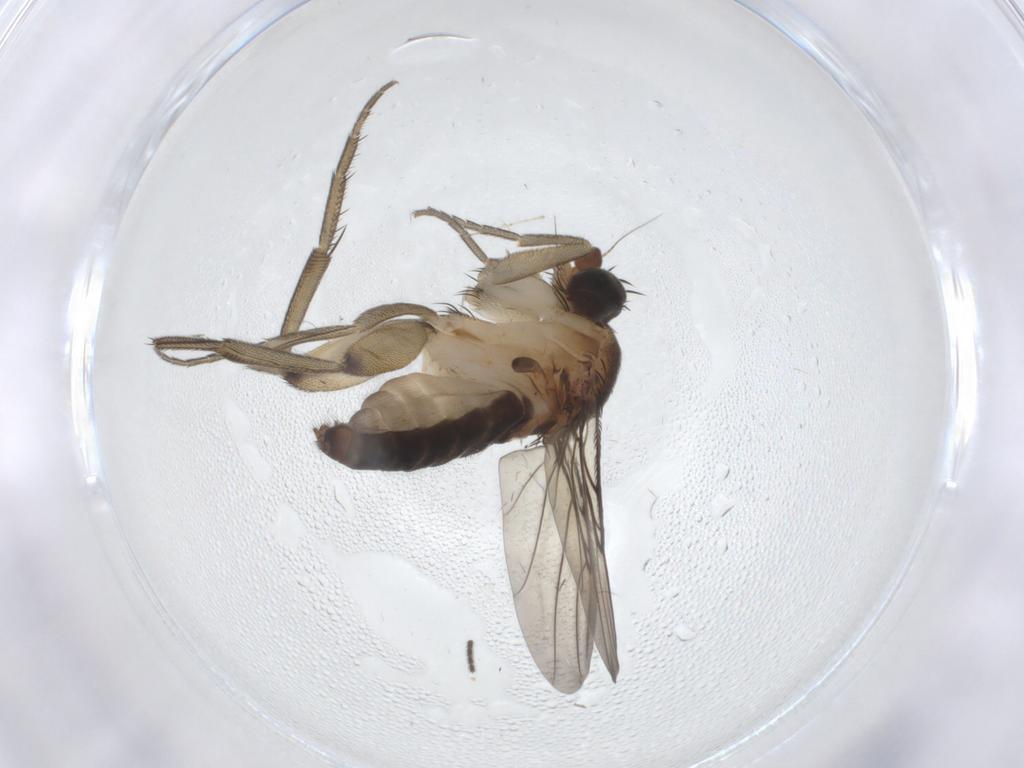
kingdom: Animalia
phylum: Arthropoda
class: Insecta
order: Diptera
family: Phoridae
